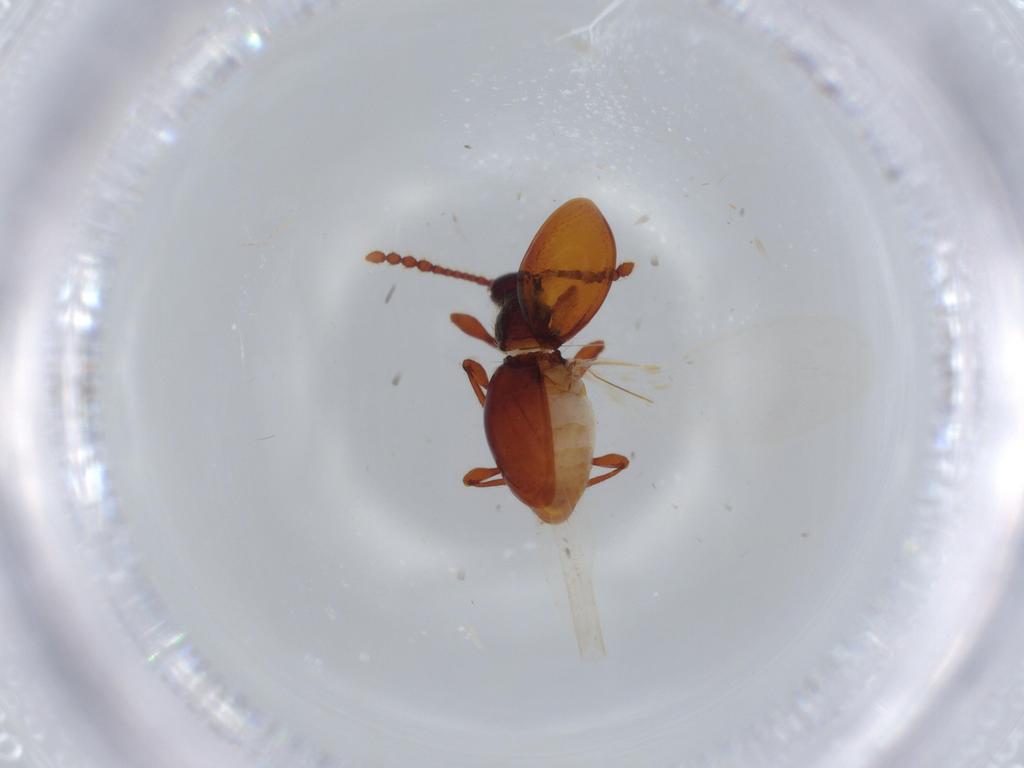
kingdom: Animalia
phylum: Arthropoda
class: Insecta
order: Coleoptera
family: Staphylinidae
